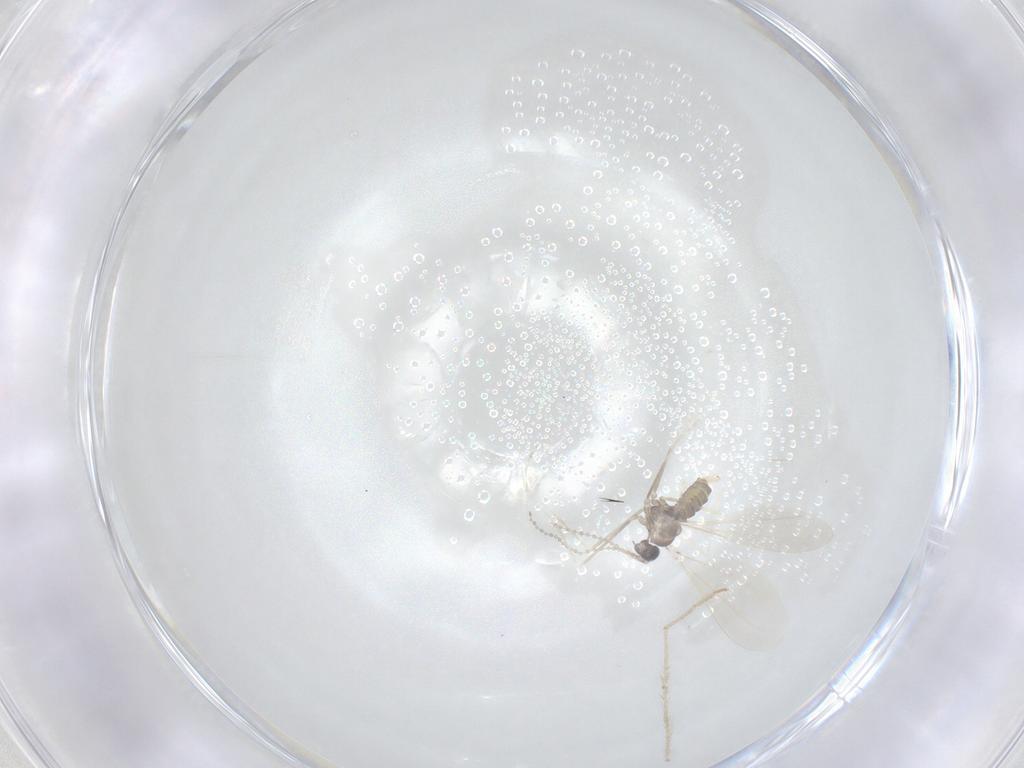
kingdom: Animalia
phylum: Arthropoda
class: Insecta
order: Diptera
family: Cecidomyiidae
